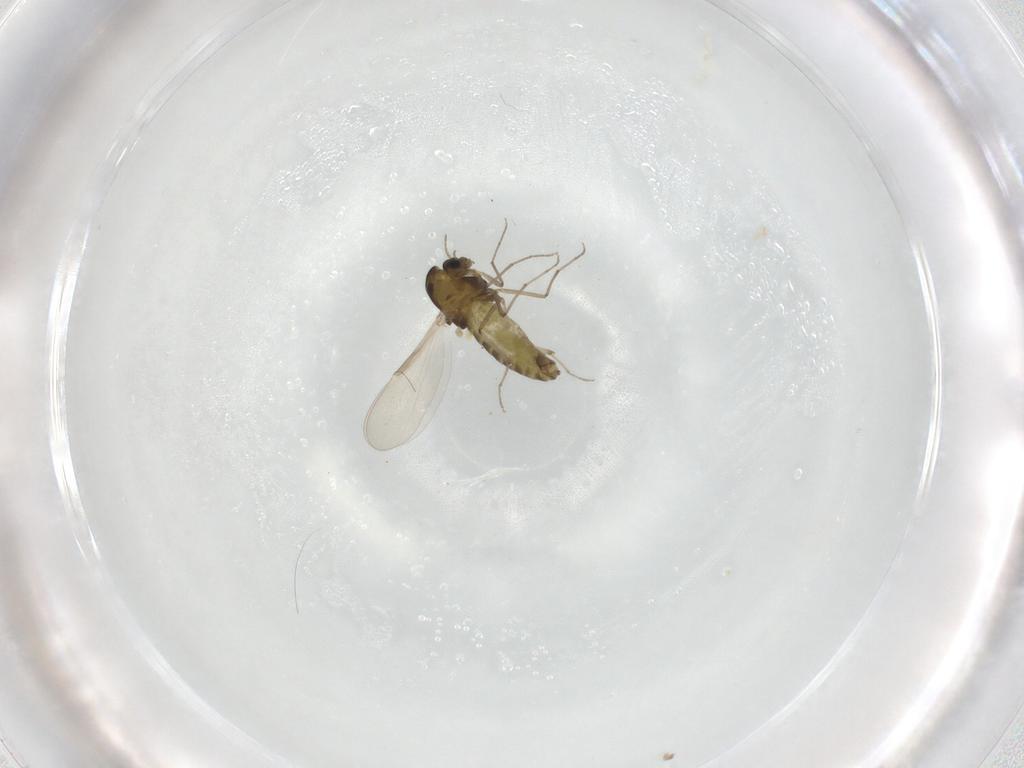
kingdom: Animalia
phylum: Arthropoda
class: Insecta
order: Diptera
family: Chironomidae
